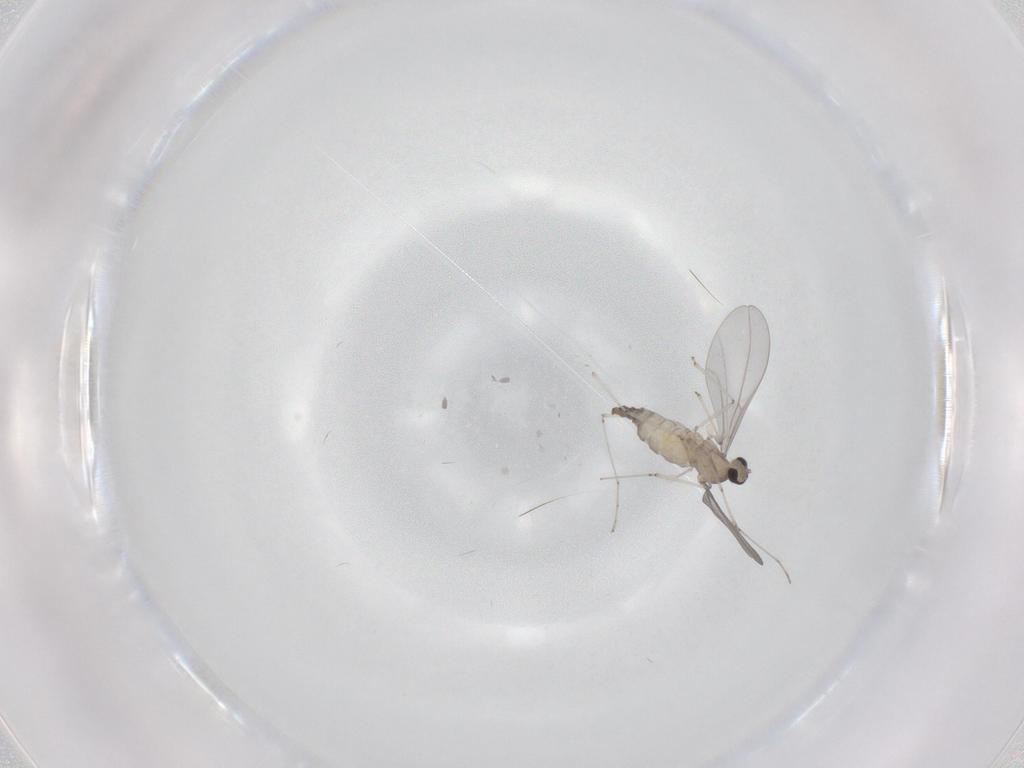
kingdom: Animalia
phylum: Arthropoda
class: Insecta
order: Diptera
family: Cecidomyiidae
